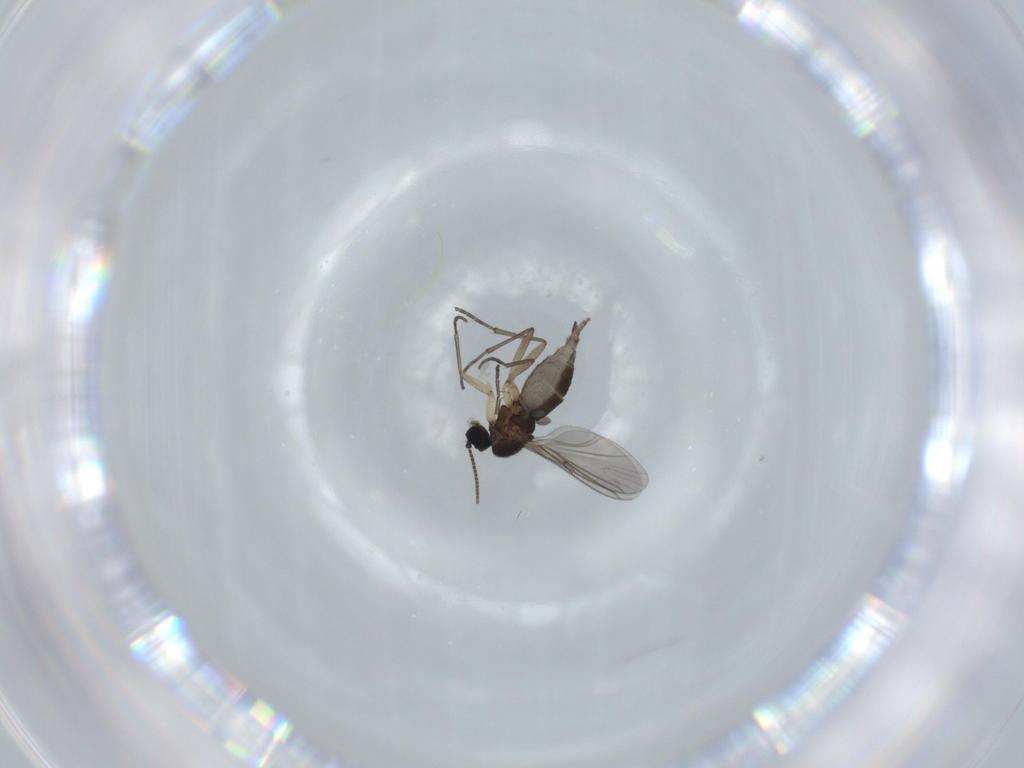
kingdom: Animalia
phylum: Arthropoda
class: Insecta
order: Diptera
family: Sciaridae
